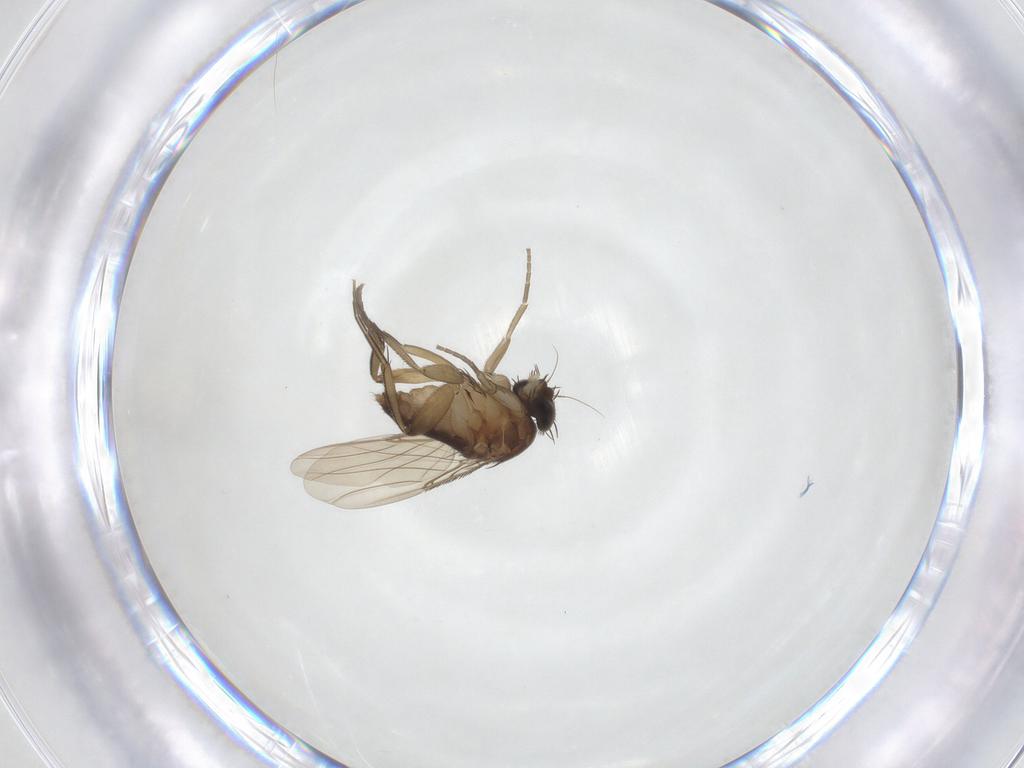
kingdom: Animalia
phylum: Arthropoda
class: Insecta
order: Diptera
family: Phoridae
